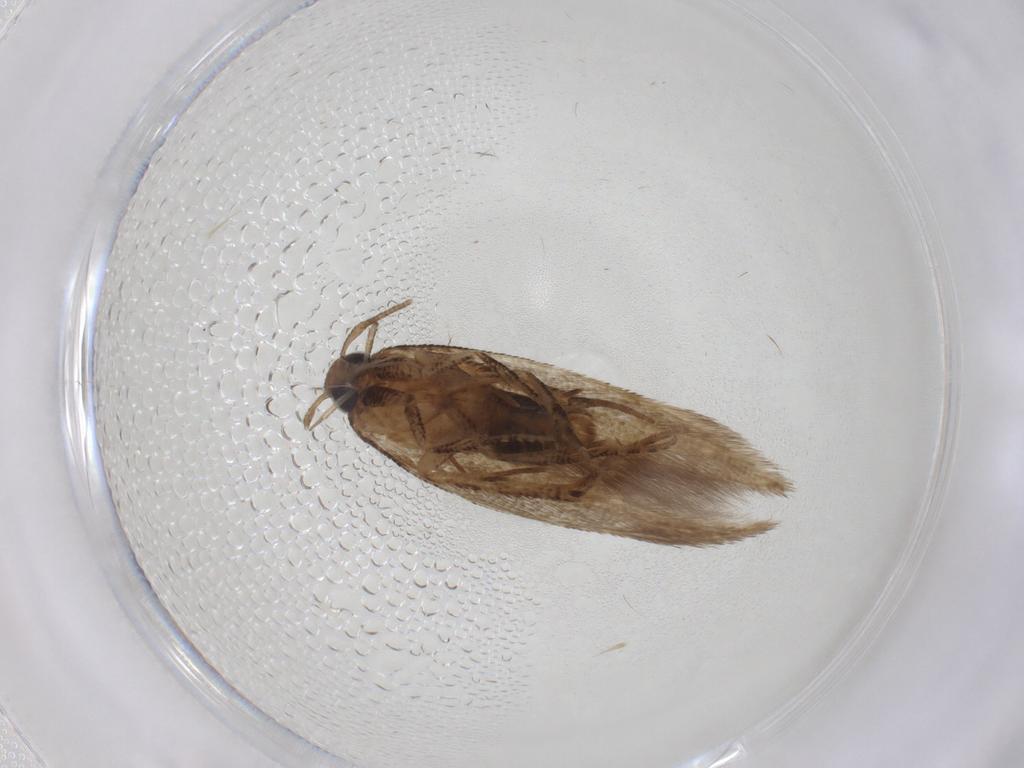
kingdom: Animalia
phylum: Arthropoda
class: Insecta
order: Lepidoptera
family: Cosmopterigidae
